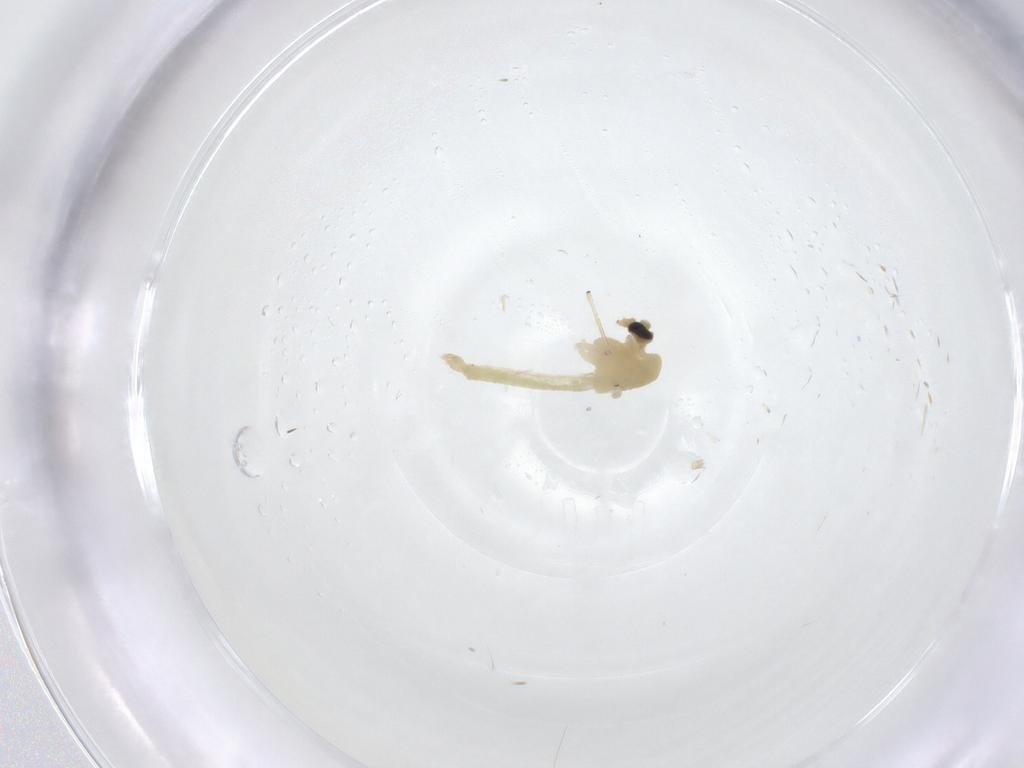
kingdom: Animalia
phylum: Arthropoda
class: Insecta
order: Diptera
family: Chironomidae
